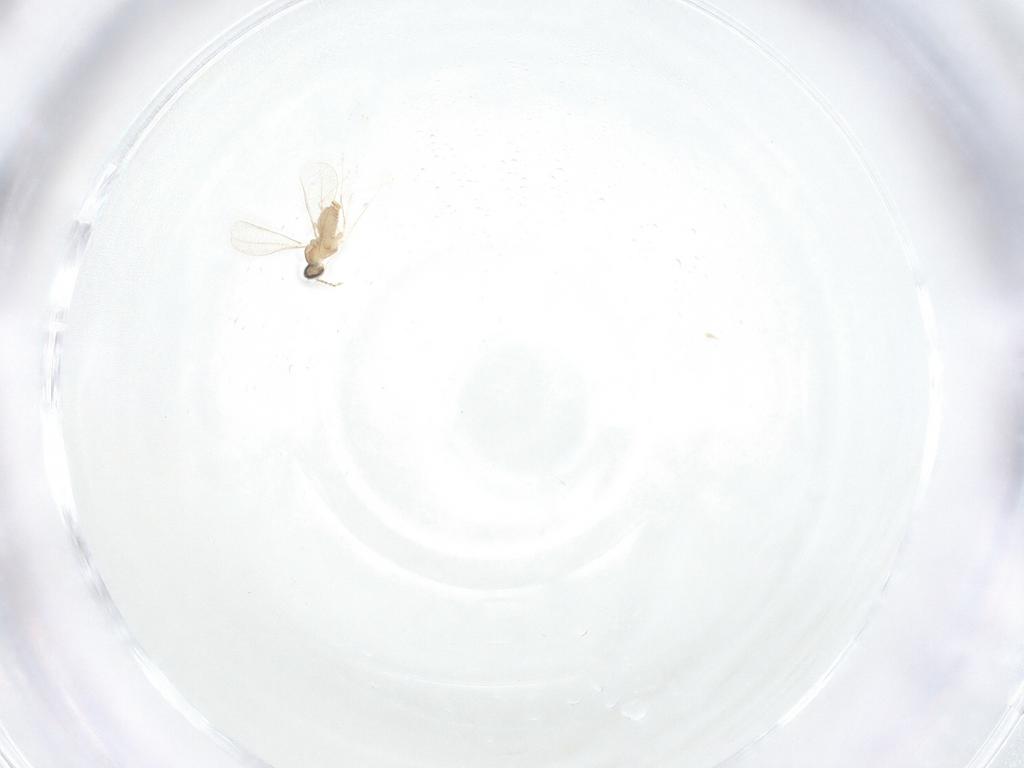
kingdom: Animalia
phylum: Arthropoda
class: Insecta
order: Diptera
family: Cecidomyiidae
